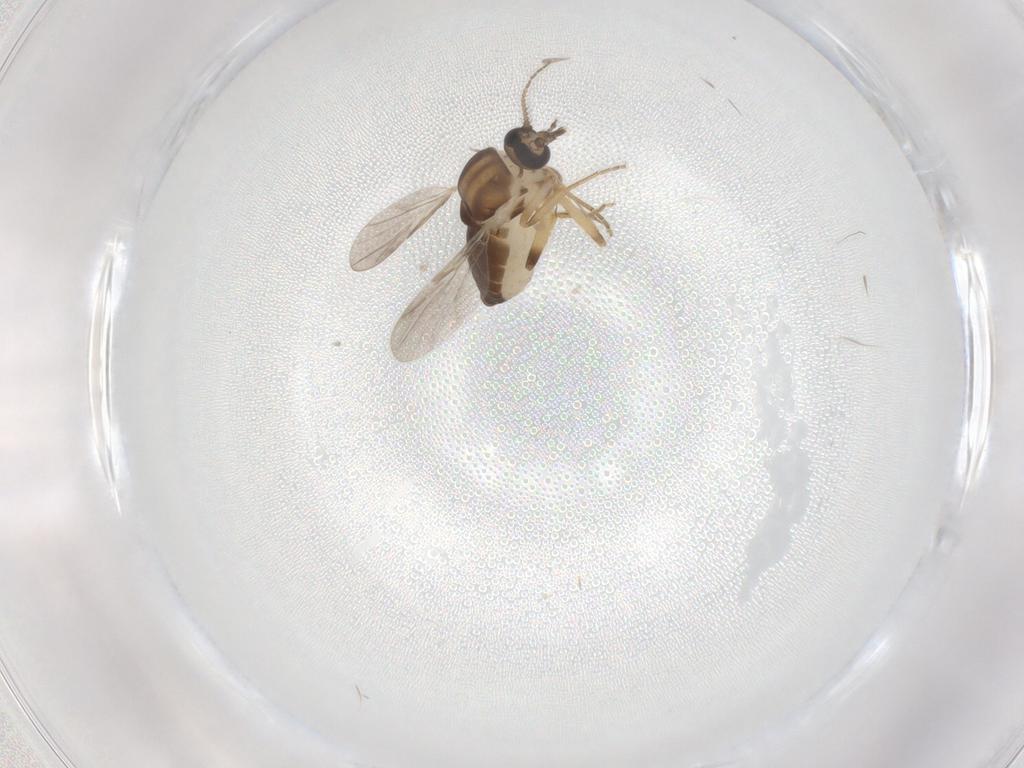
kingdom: Animalia
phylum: Arthropoda
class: Insecta
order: Diptera
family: Ceratopogonidae
